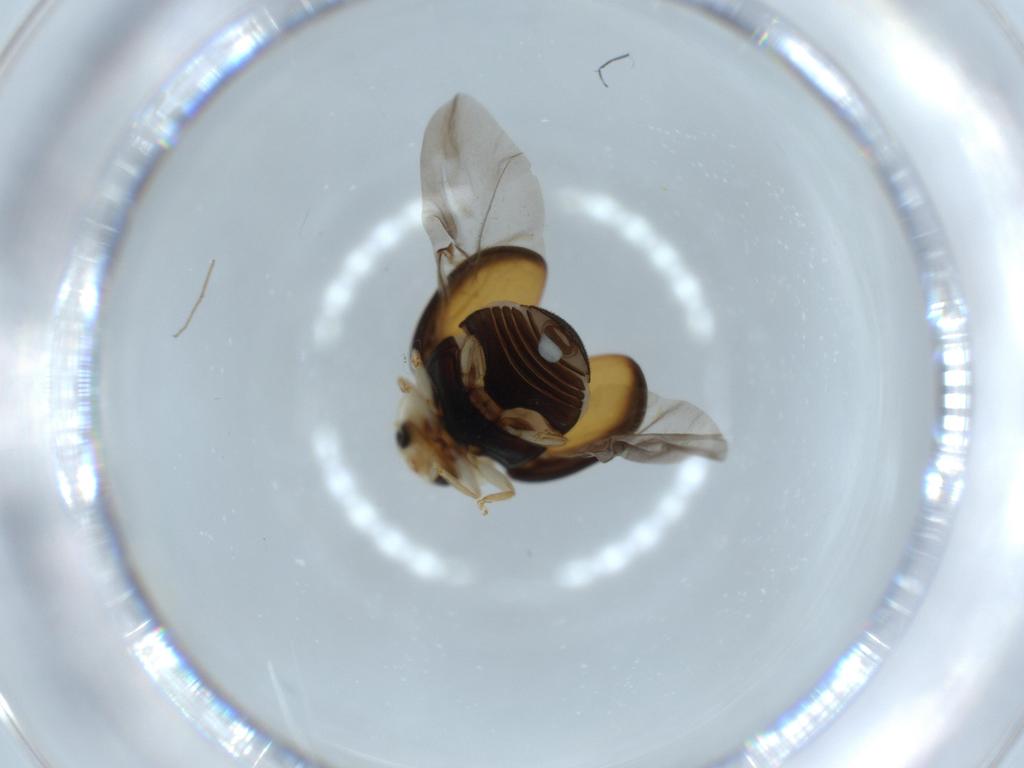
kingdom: Animalia
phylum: Arthropoda
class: Insecta
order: Coleoptera
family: Coccinellidae
